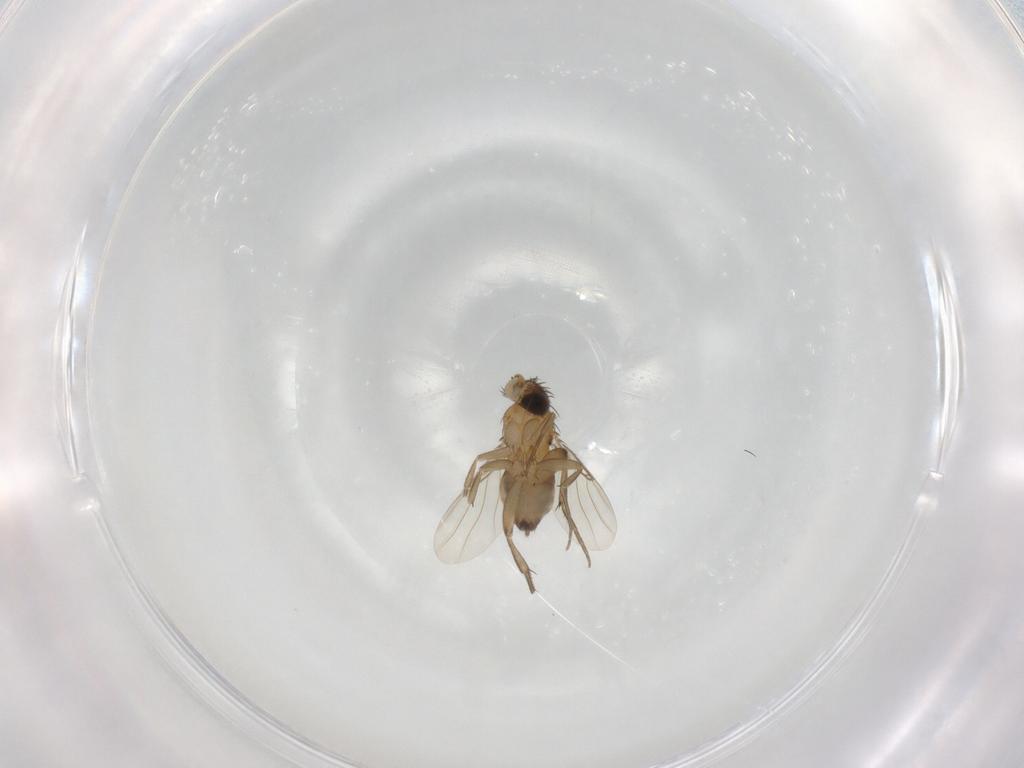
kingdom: Animalia
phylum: Arthropoda
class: Insecta
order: Diptera
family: Phoridae
